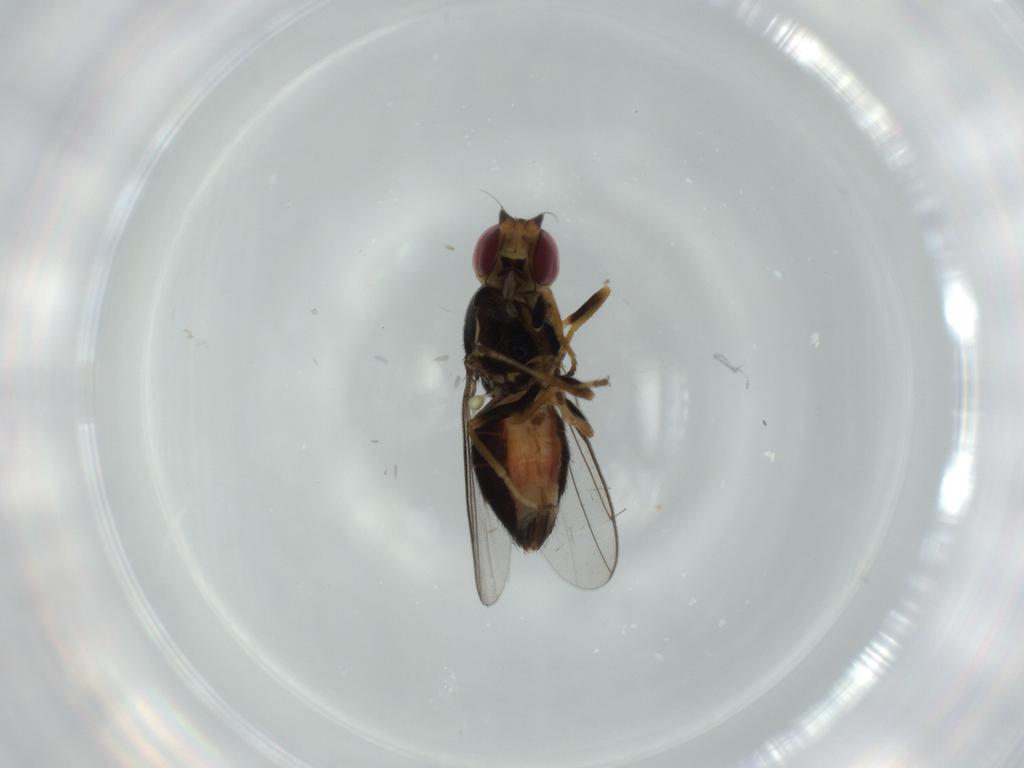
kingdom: Animalia
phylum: Arthropoda
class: Insecta
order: Diptera
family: Chloropidae
